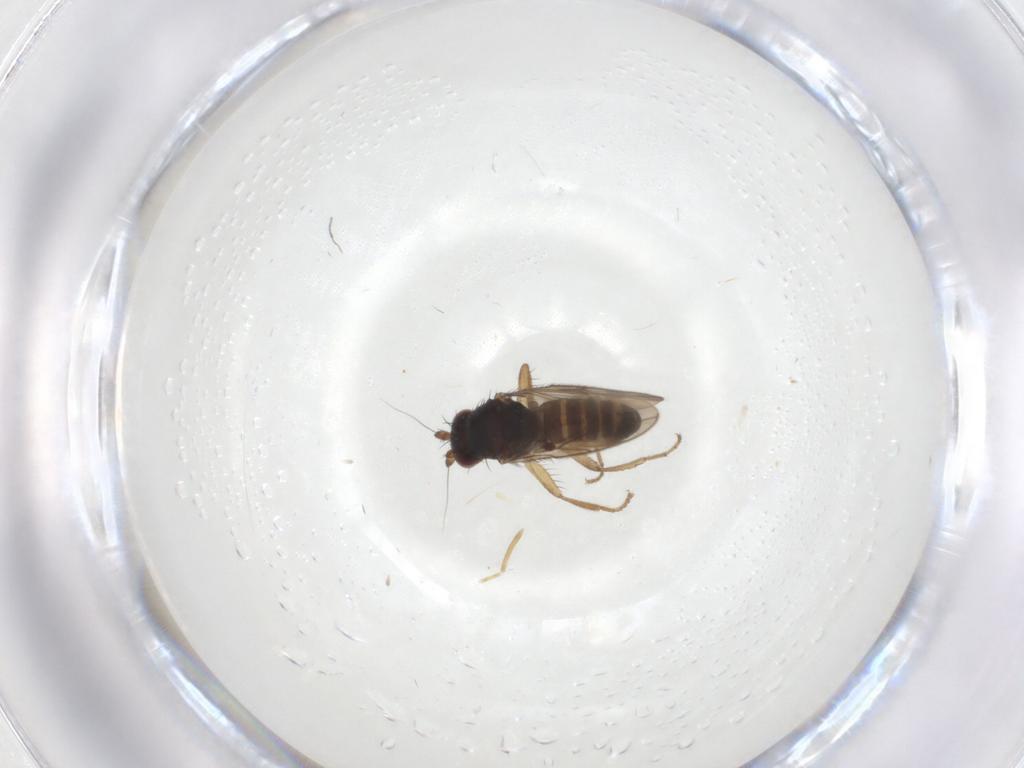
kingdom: Animalia
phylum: Arthropoda
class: Insecta
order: Diptera
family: Sphaeroceridae
